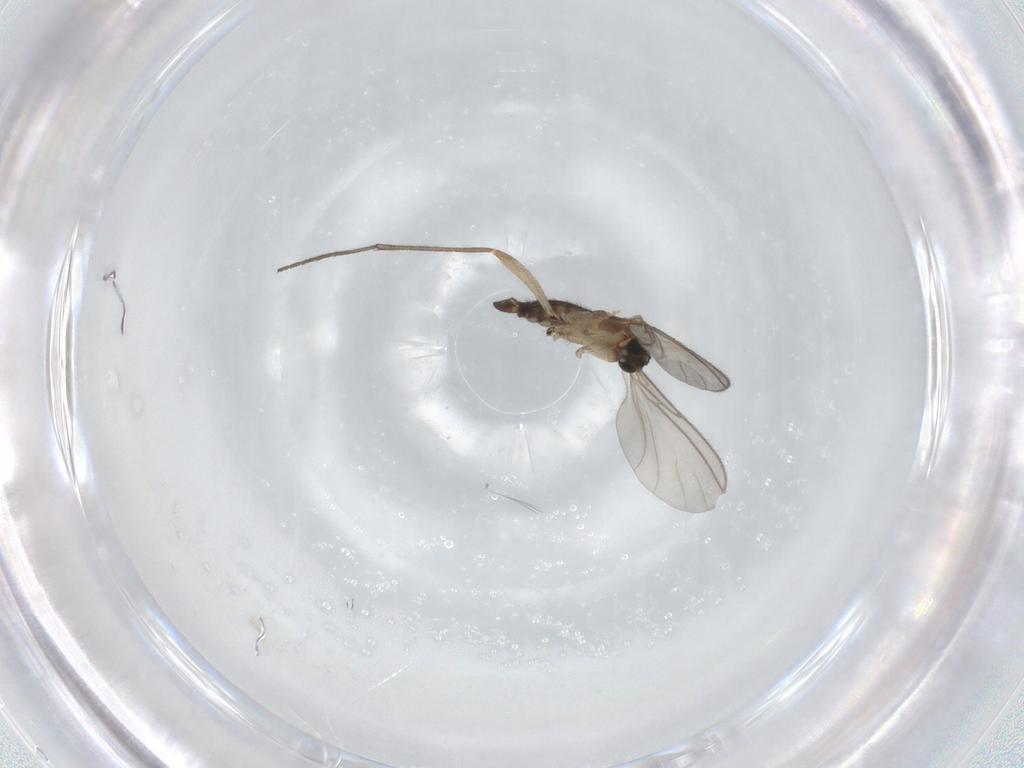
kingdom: Animalia
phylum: Arthropoda
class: Insecta
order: Diptera
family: Sciaridae
